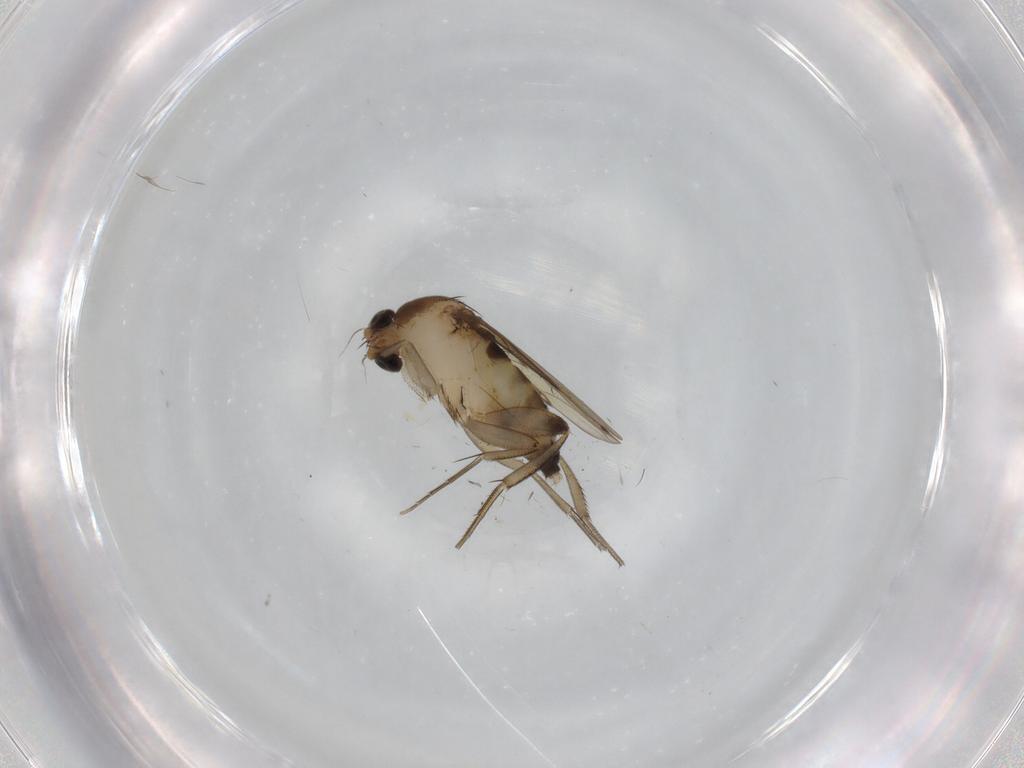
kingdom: Animalia
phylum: Arthropoda
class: Insecta
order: Diptera
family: Phoridae
